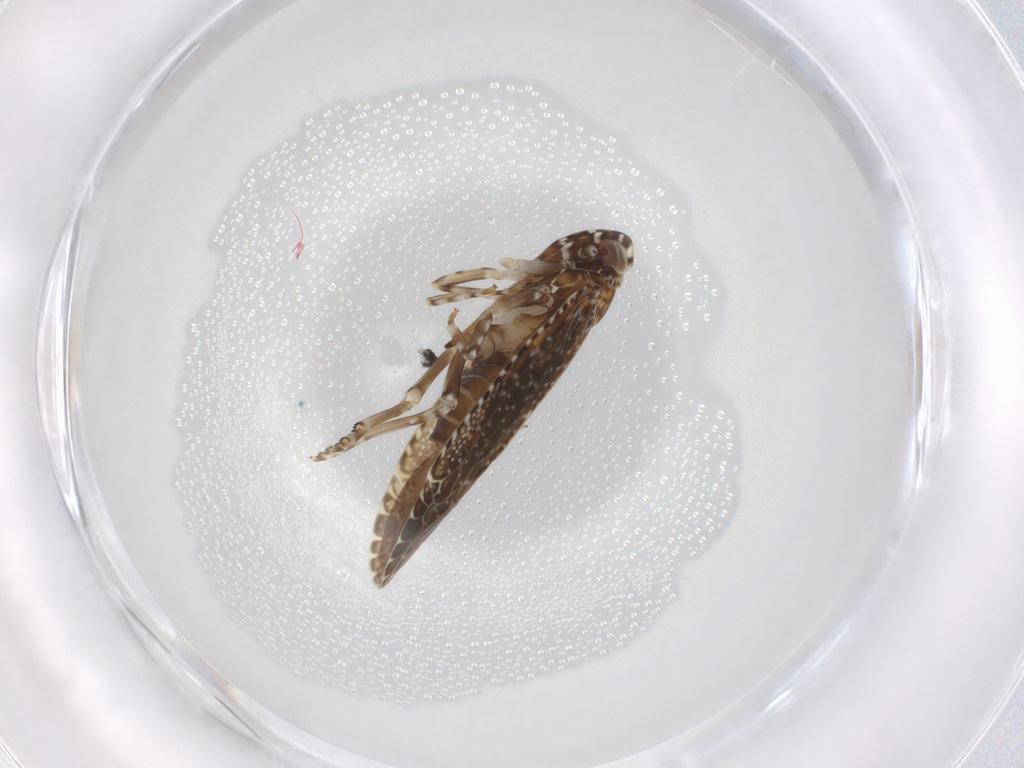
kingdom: Animalia
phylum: Arthropoda
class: Insecta
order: Hemiptera
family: Achilidae
